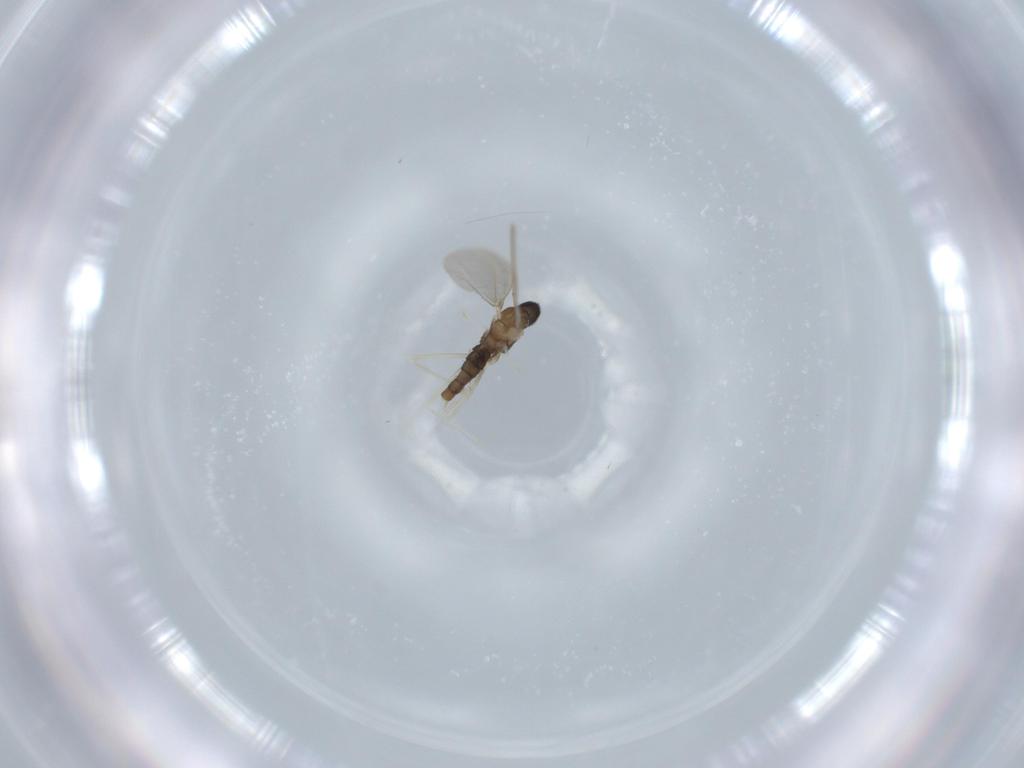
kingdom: Animalia
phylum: Arthropoda
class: Insecta
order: Diptera
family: Cecidomyiidae
